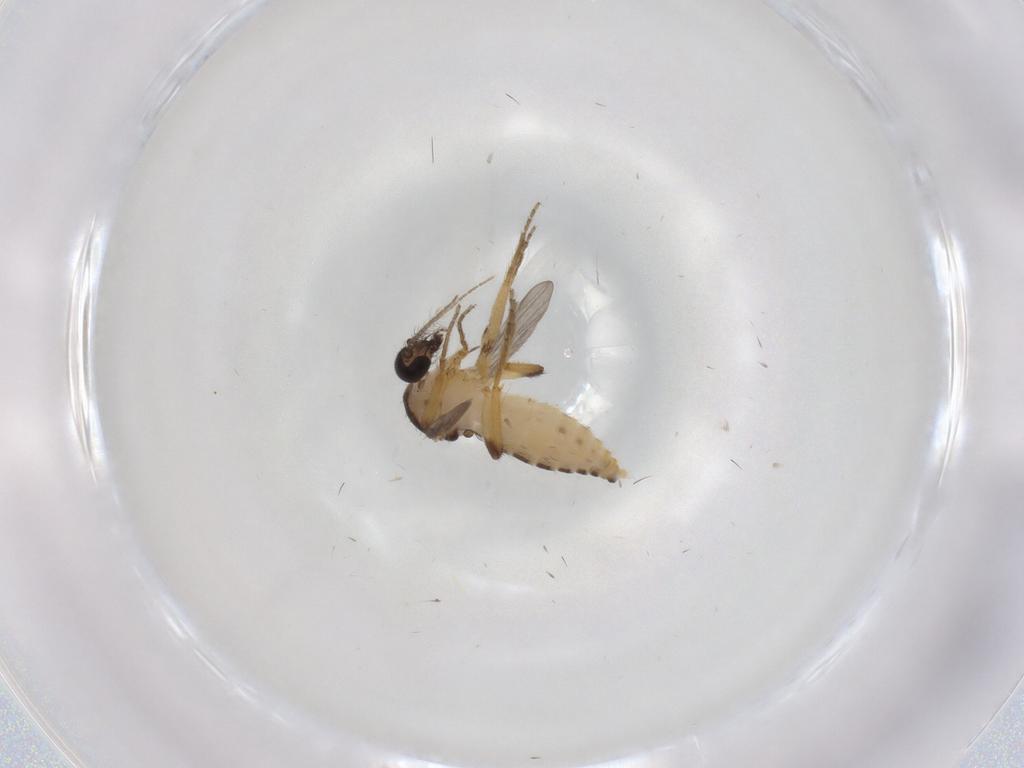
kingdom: Animalia
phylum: Arthropoda
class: Insecta
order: Diptera
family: Ceratopogonidae
